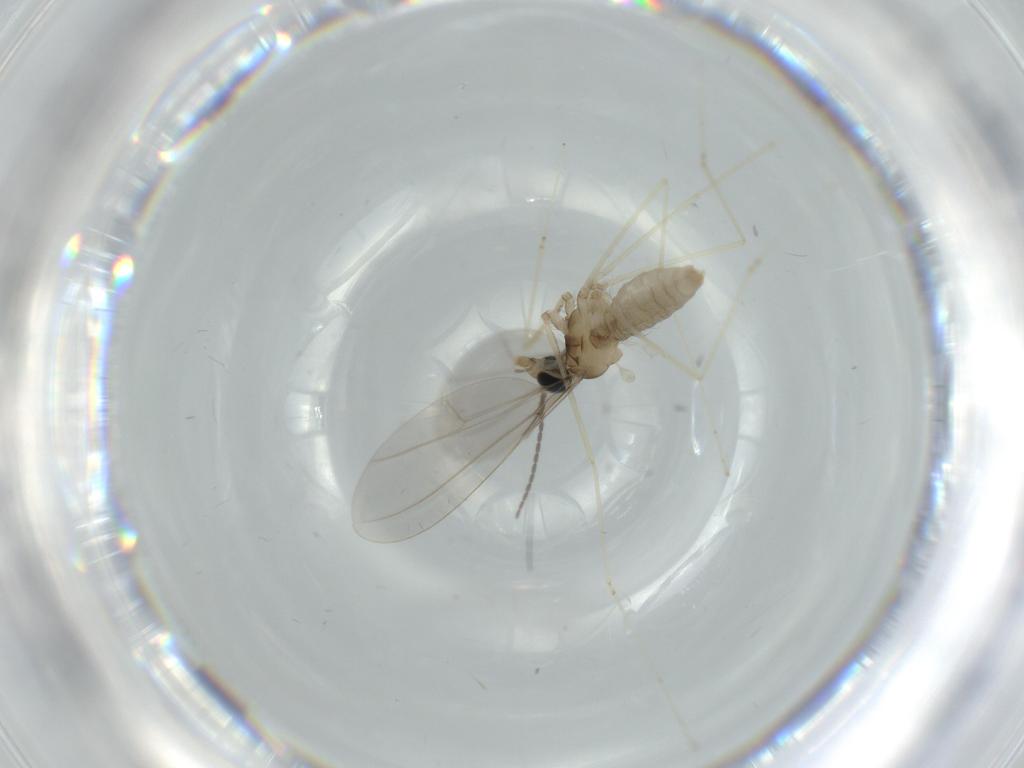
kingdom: Animalia
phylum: Arthropoda
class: Insecta
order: Diptera
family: Cecidomyiidae
